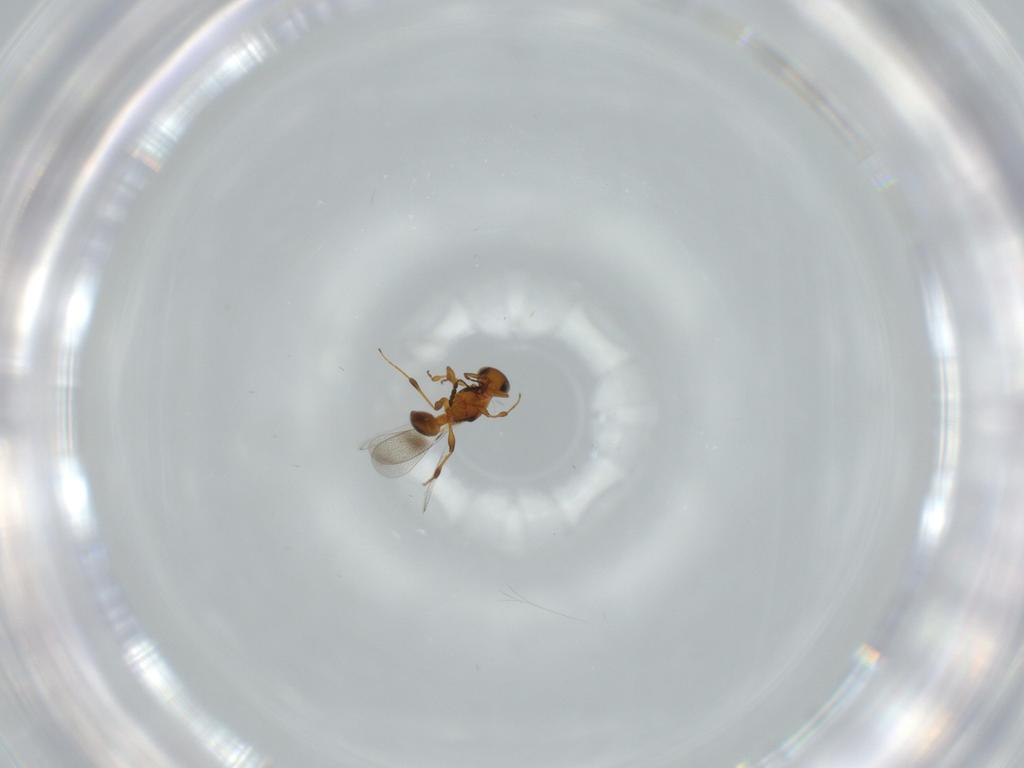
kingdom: Animalia
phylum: Arthropoda
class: Insecta
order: Hymenoptera
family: Platygastridae
